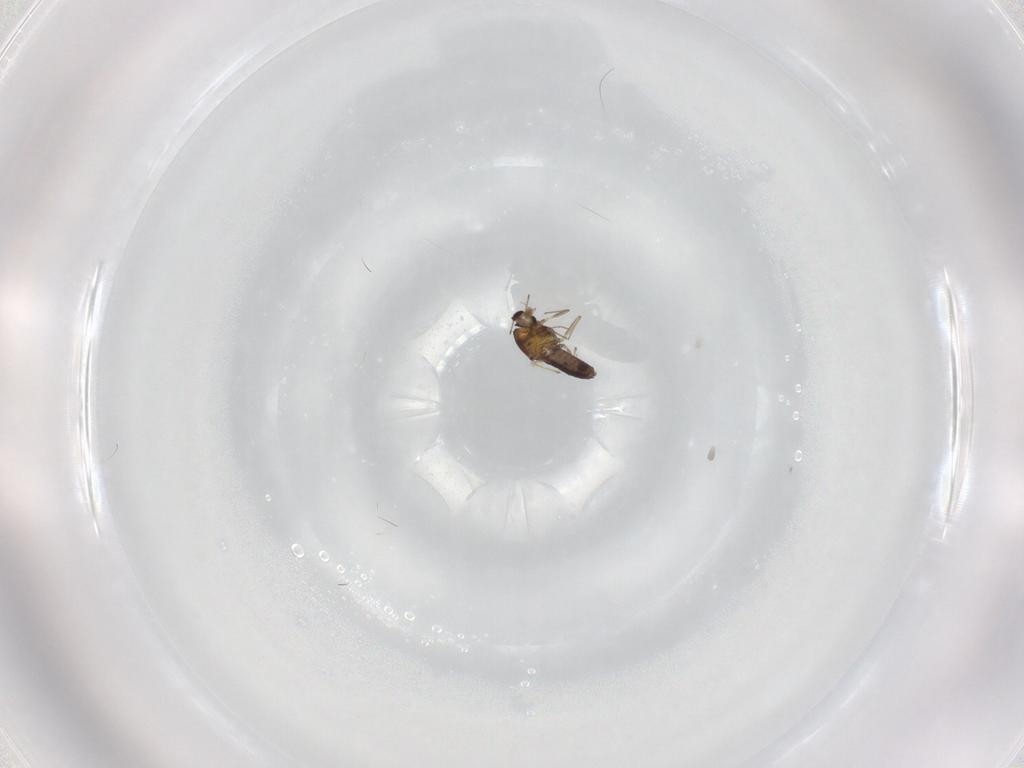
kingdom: Animalia
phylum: Arthropoda
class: Insecta
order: Diptera
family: Chironomidae
